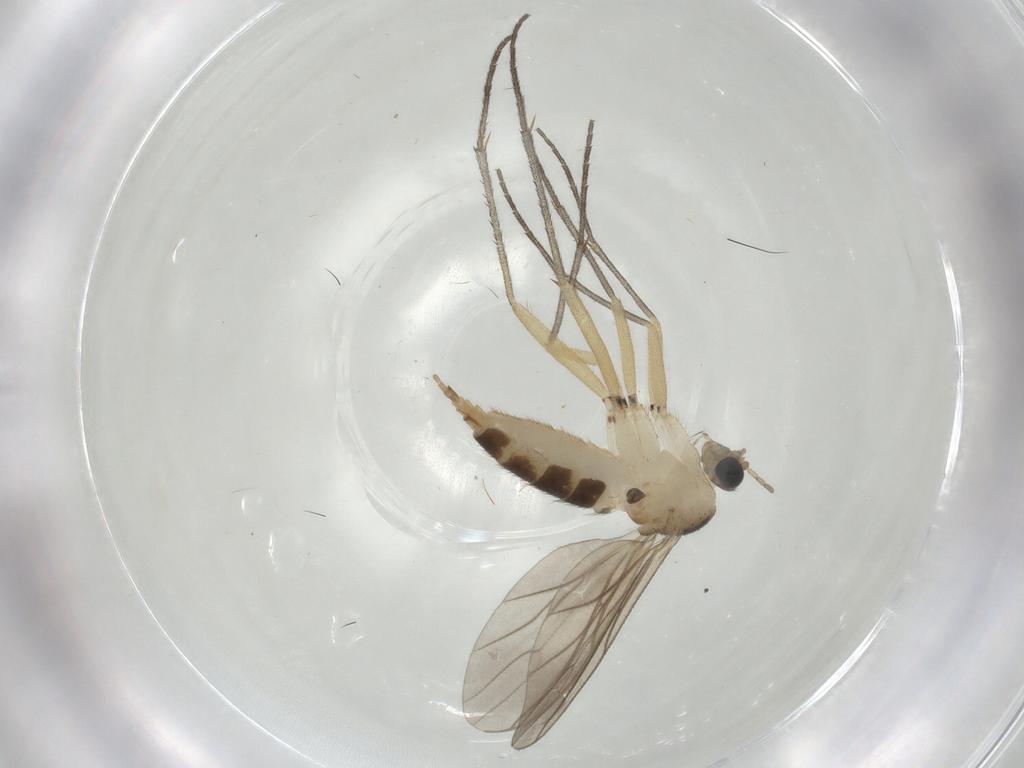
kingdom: Animalia
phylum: Arthropoda
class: Insecta
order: Diptera
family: Sciaridae
